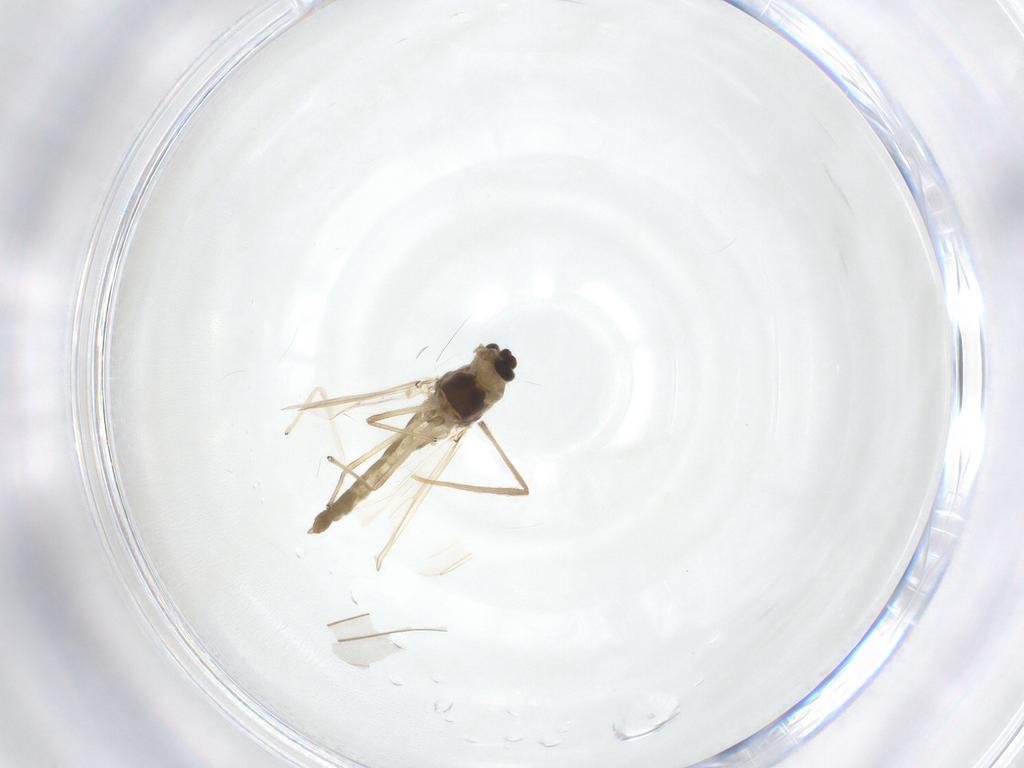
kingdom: Animalia
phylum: Arthropoda
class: Insecta
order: Diptera
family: Chironomidae
